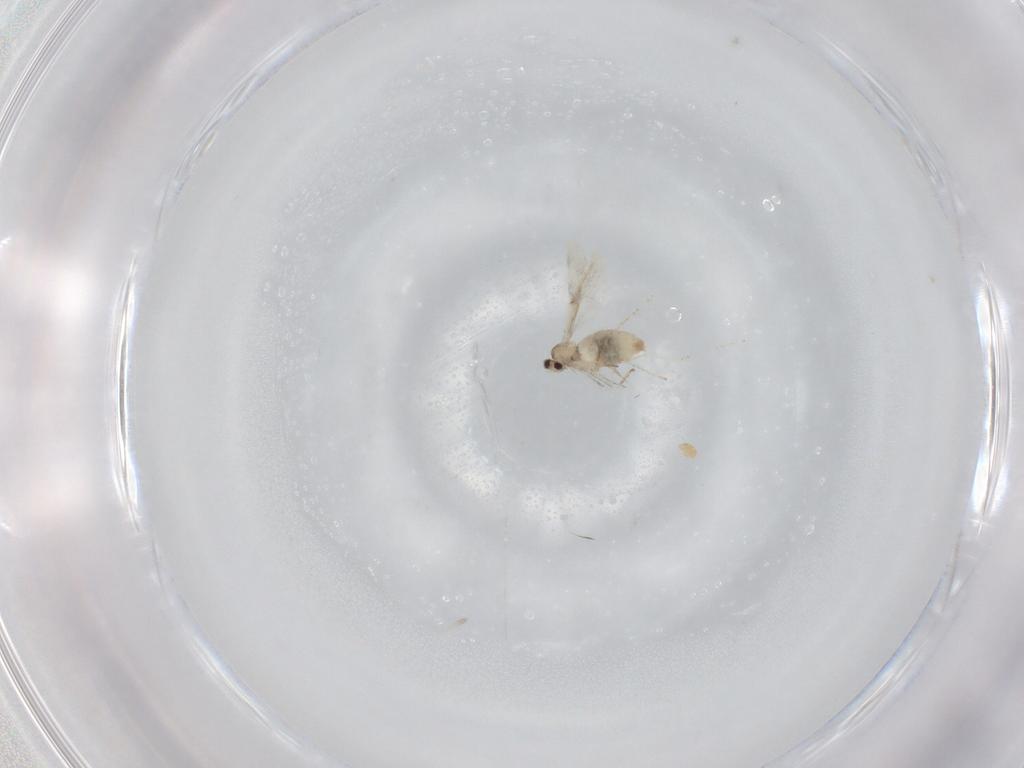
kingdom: Animalia
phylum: Arthropoda
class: Insecta
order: Diptera
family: Cecidomyiidae
